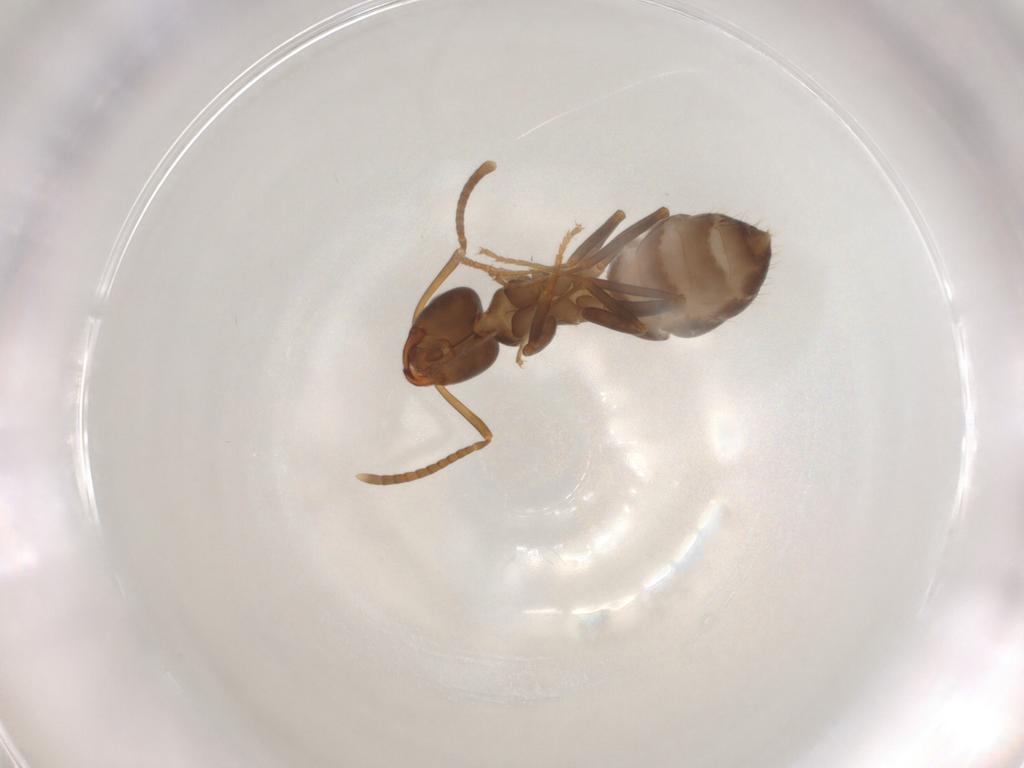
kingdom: Animalia
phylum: Arthropoda
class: Insecta
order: Hymenoptera
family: Formicidae
